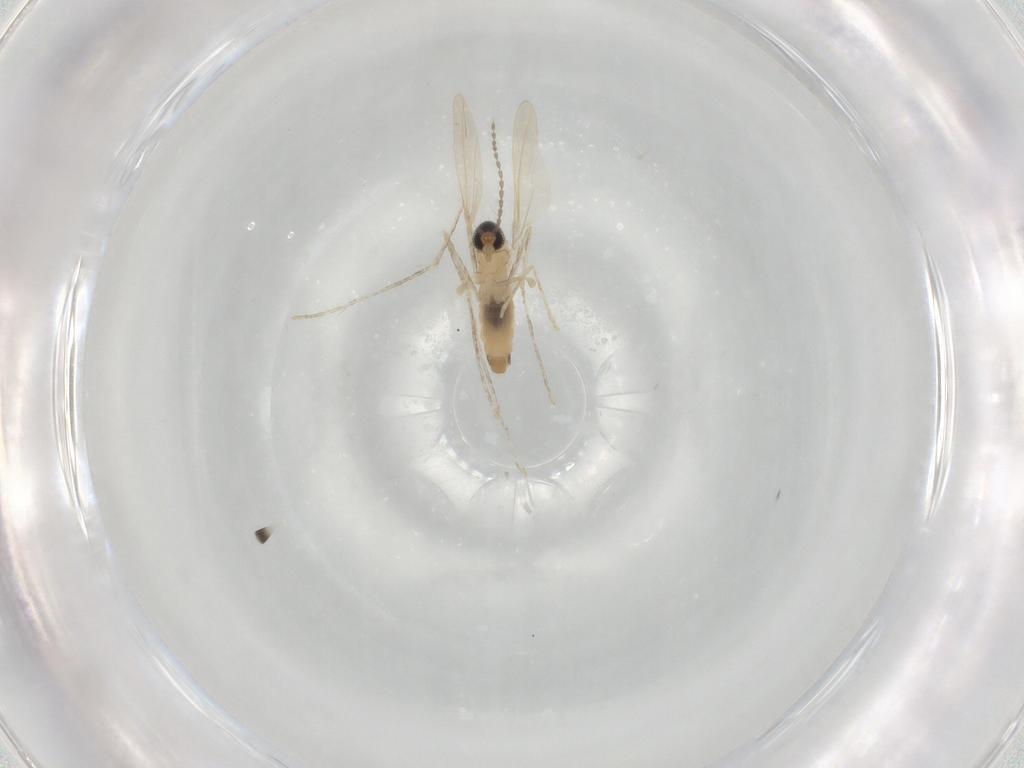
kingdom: Animalia
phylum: Arthropoda
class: Insecta
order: Diptera
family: Cecidomyiidae
